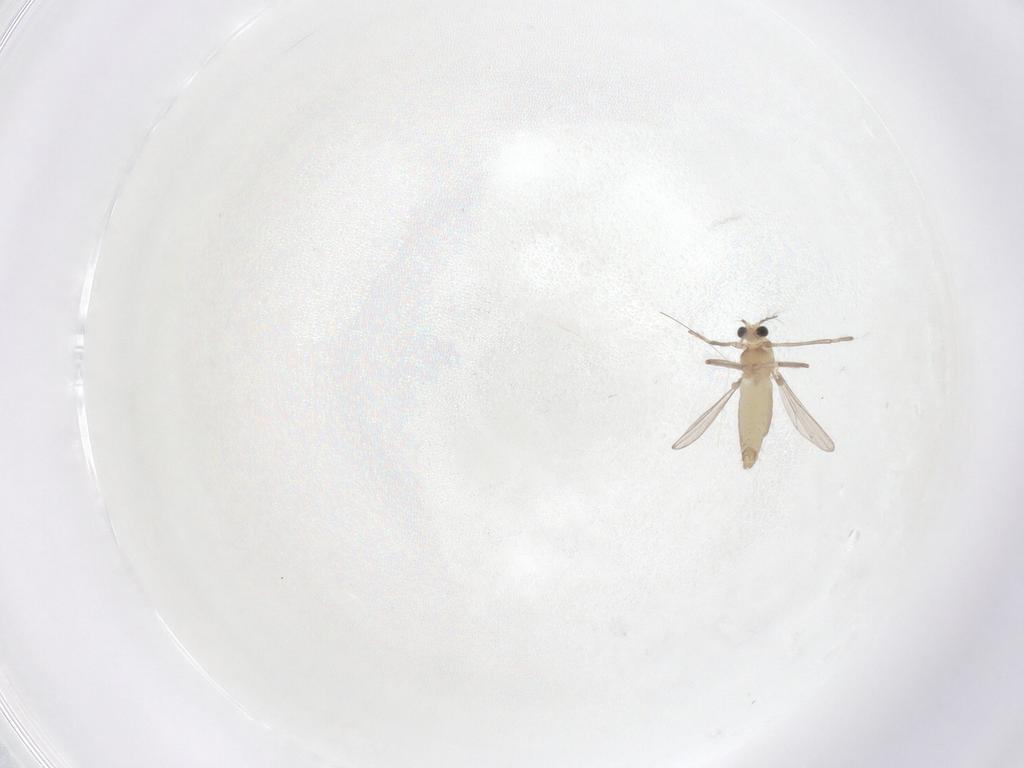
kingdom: Animalia
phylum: Arthropoda
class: Insecta
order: Diptera
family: Chironomidae
